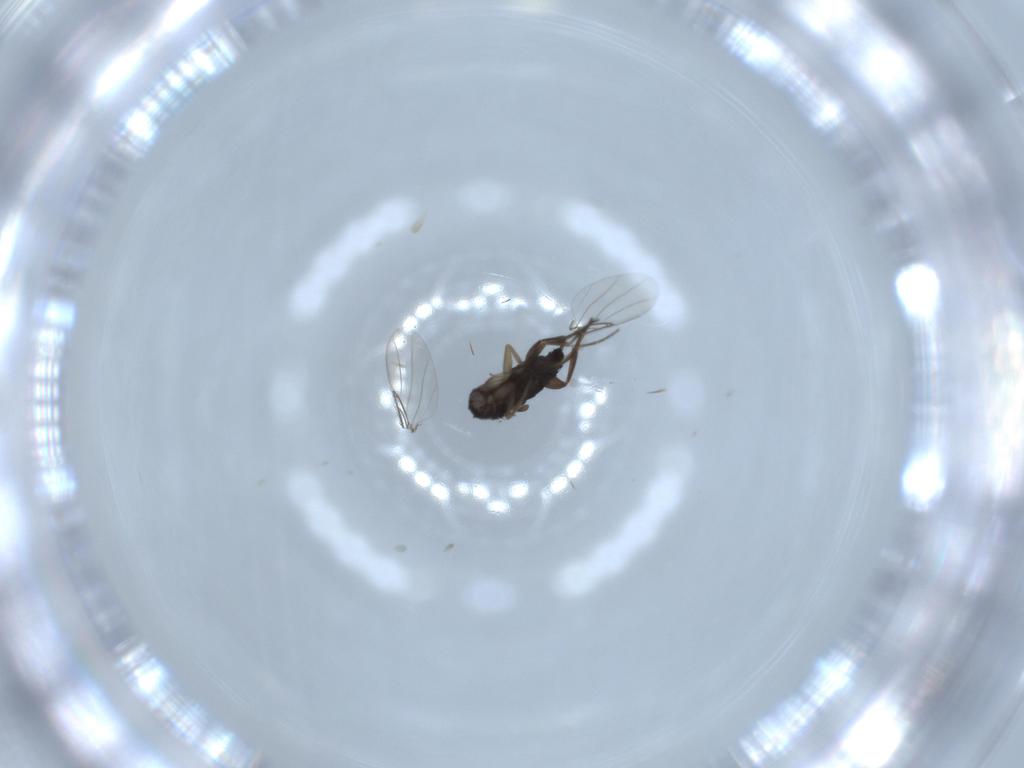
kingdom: Animalia
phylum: Arthropoda
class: Insecta
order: Diptera
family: Phoridae
